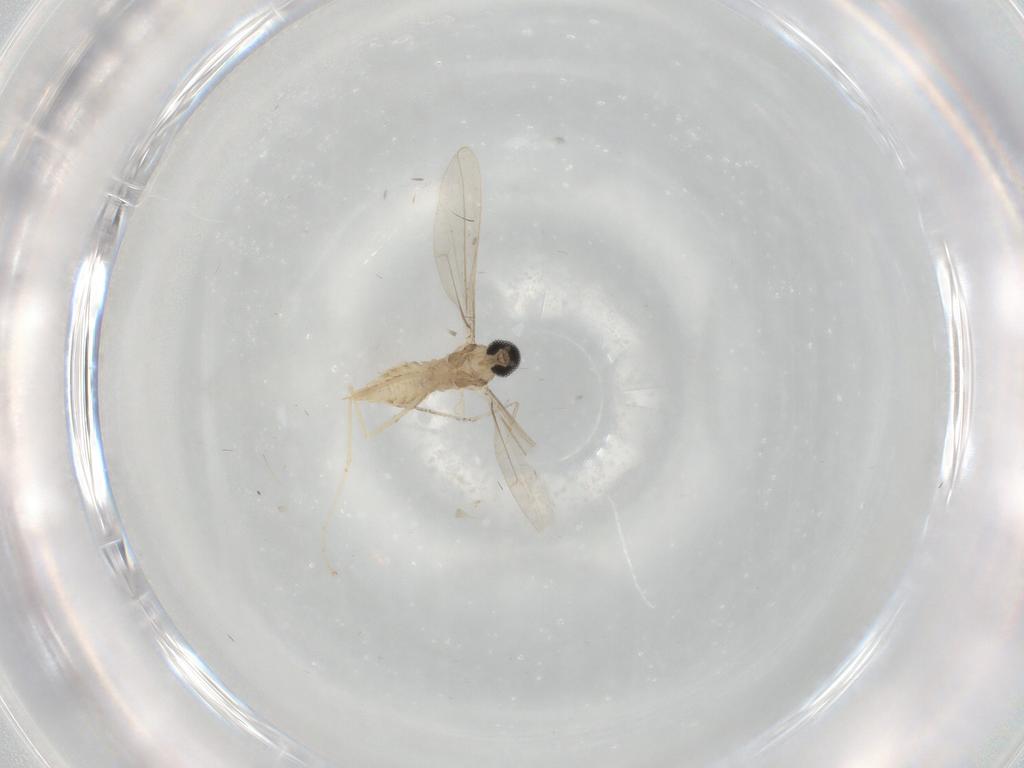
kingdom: Animalia
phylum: Arthropoda
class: Insecta
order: Diptera
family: Cecidomyiidae
